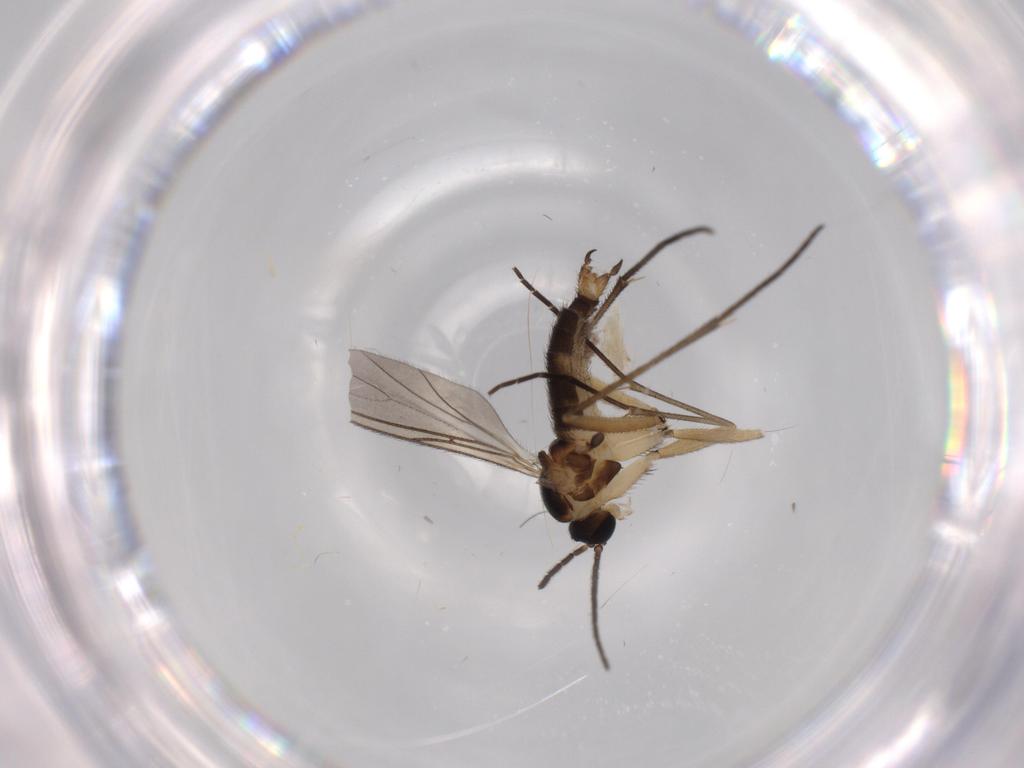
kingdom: Animalia
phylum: Arthropoda
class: Insecta
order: Diptera
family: Sciaridae
